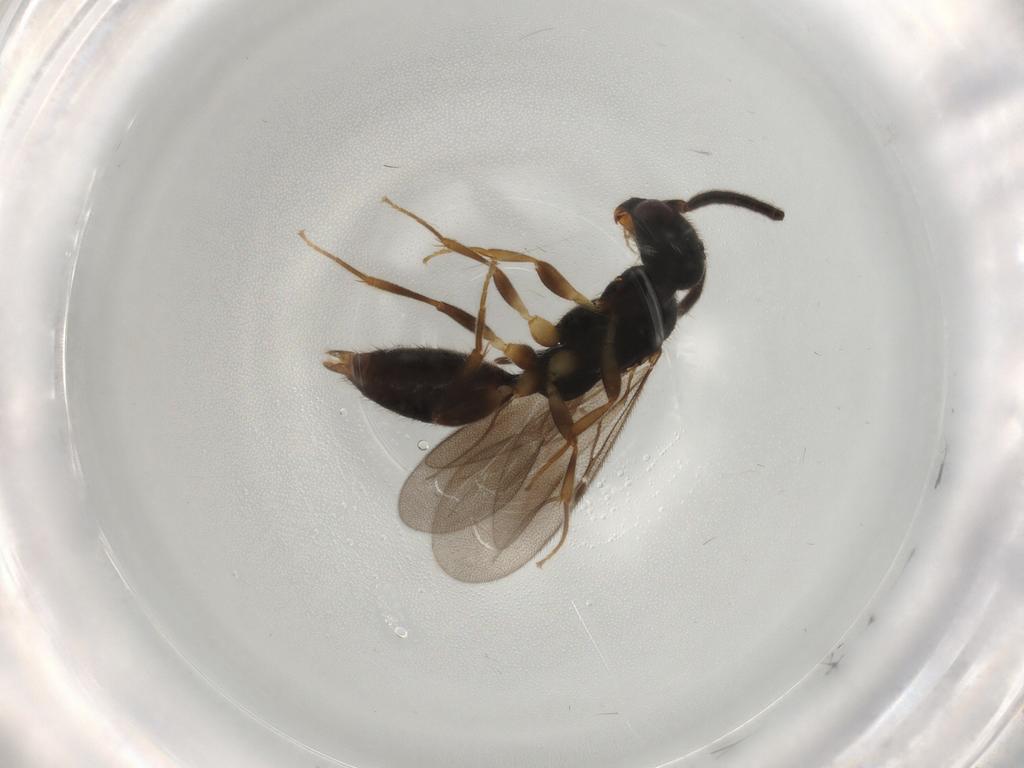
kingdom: Animalia
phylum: Arthropoda
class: Insecta
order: Hymenoptera
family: Bethylidae
